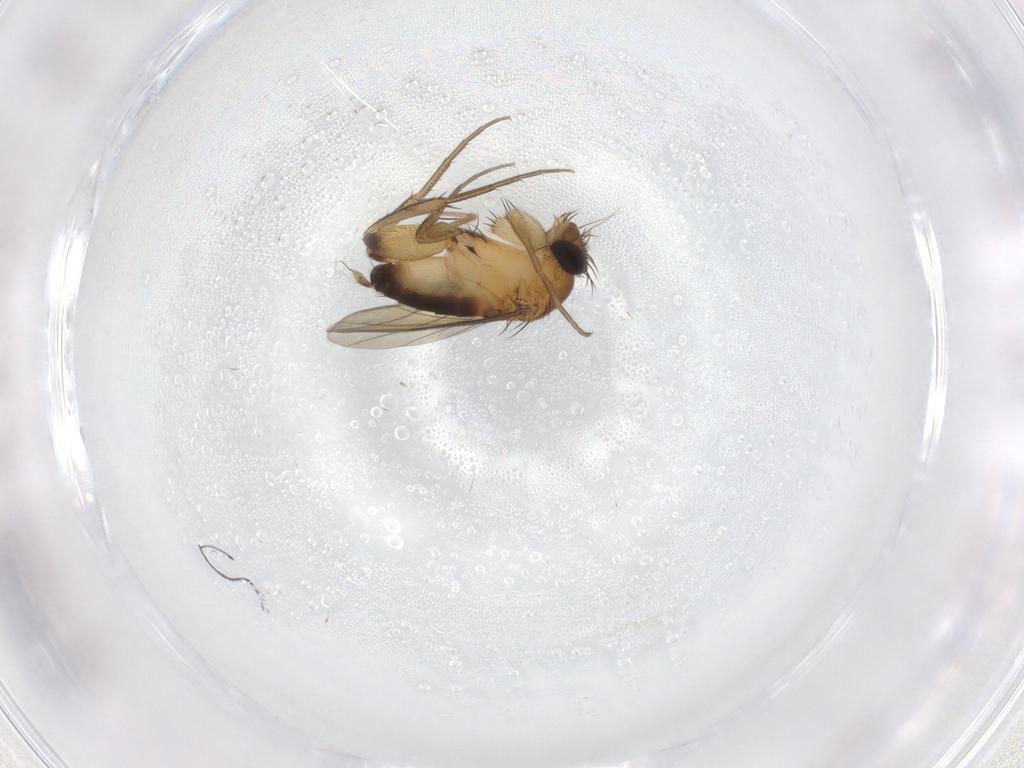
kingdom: Animalia
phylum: Arthropoda
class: Insecta
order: Diptera
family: Phoridae
